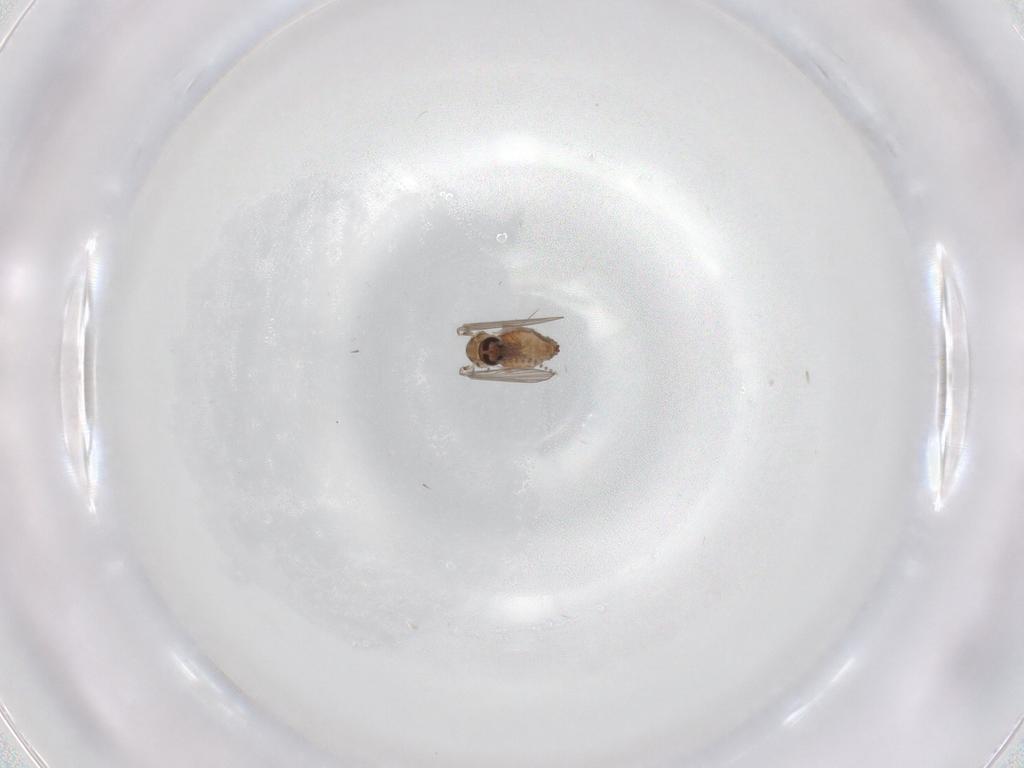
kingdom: Animalia
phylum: Arthropoda
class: Insecta
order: Diptera
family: Psychodidae
